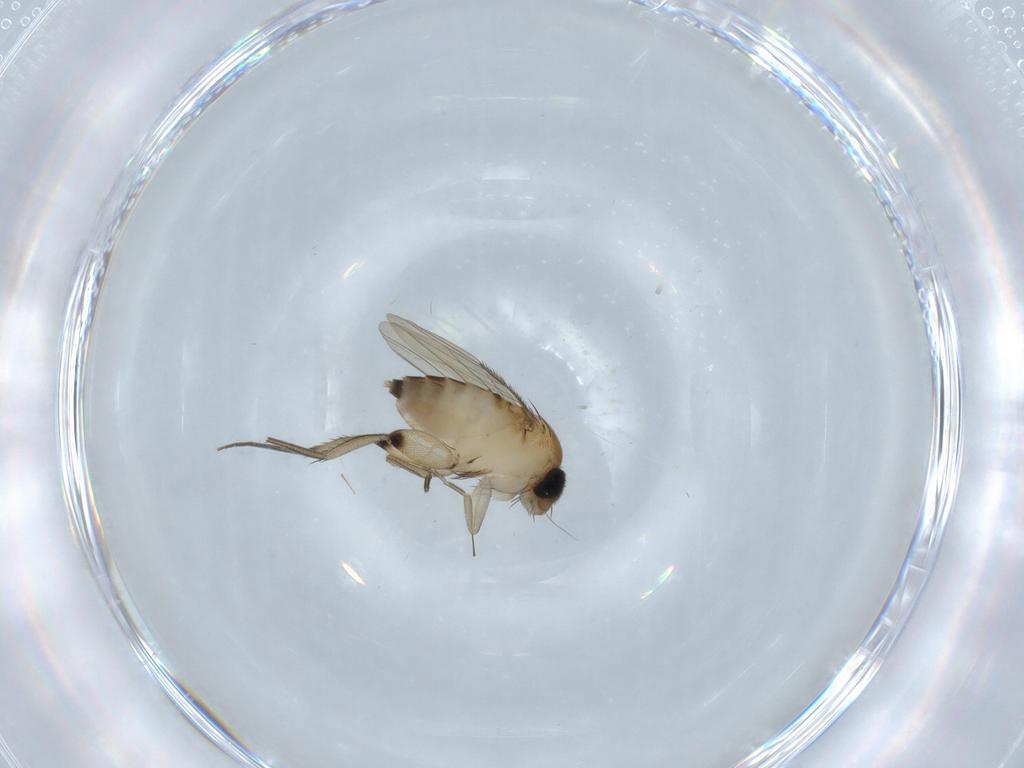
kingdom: Animalia
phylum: Arthropoda
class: Insecta
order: Diptera
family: Phoridae
